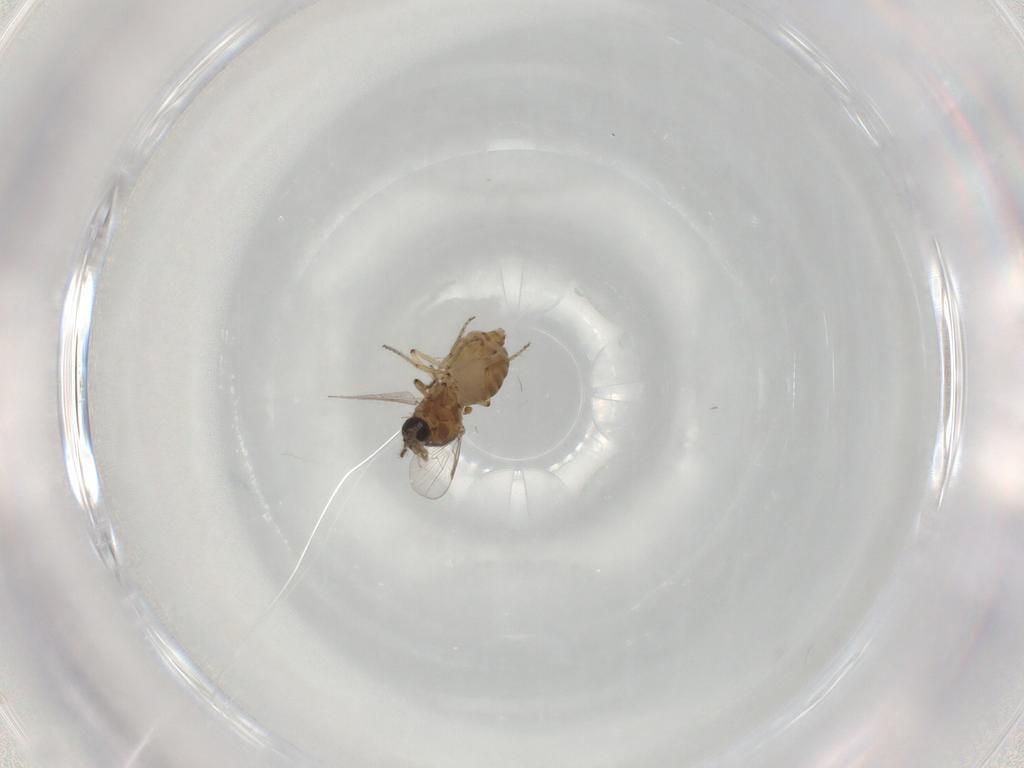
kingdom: Animalia
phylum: Arthropoda
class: Insecta
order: Diptera
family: Ceratopogonidae
